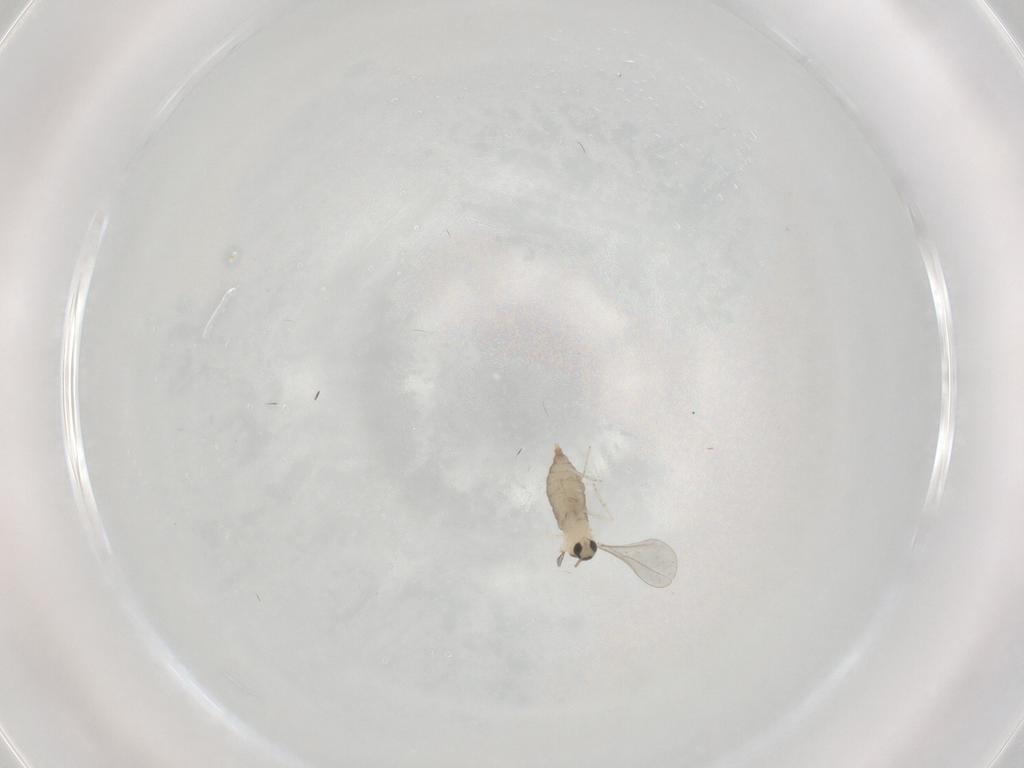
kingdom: Animalia
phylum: Arthropoda
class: Insecta
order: Diptera
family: Cecidomyiidae
